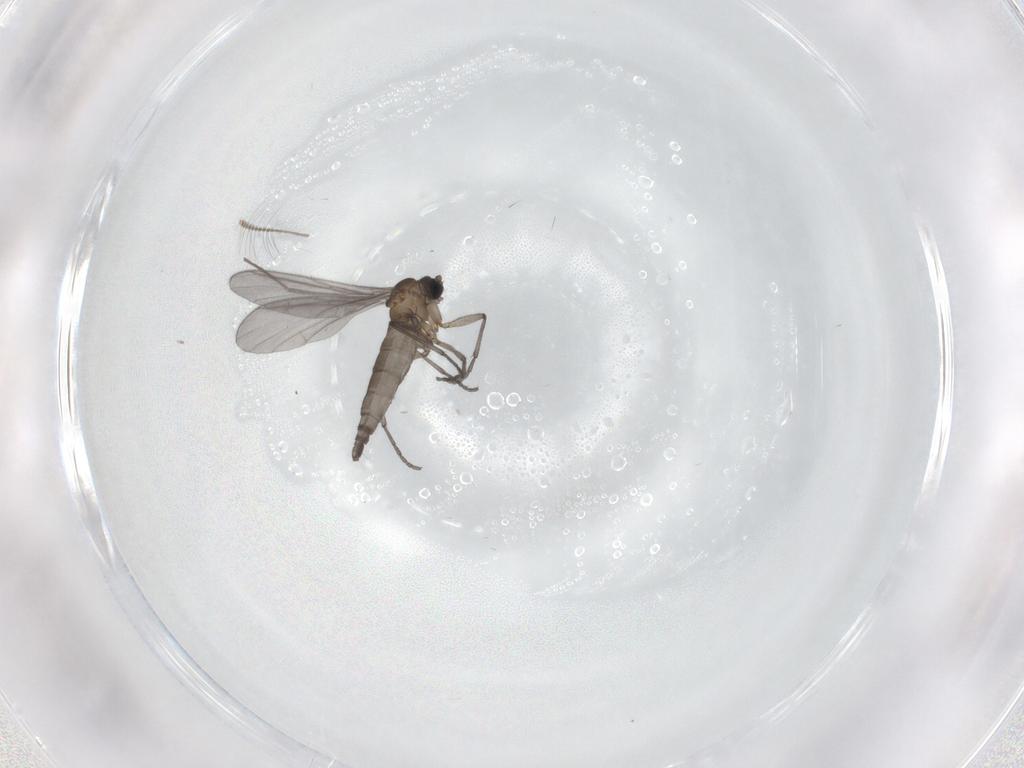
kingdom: Animalia
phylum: Arthropoda
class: Insecta
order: Diptera
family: Sciaridae
